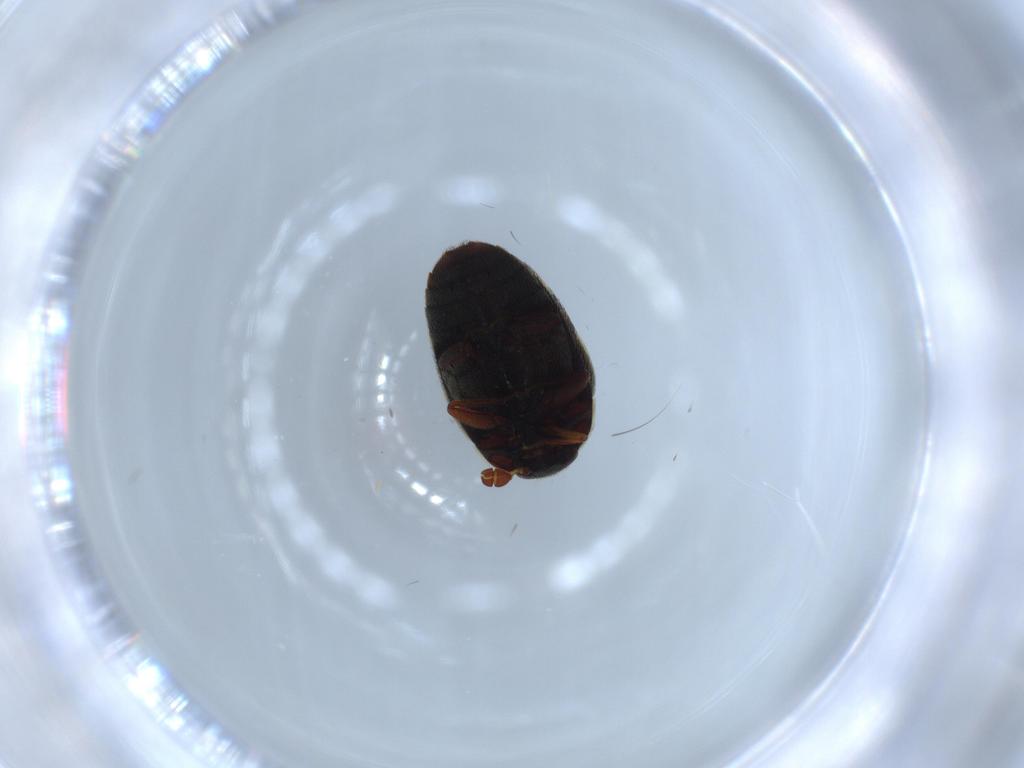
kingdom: Animalia
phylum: Arthropoda
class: Insecta
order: Coleoptera
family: Dermestidae
